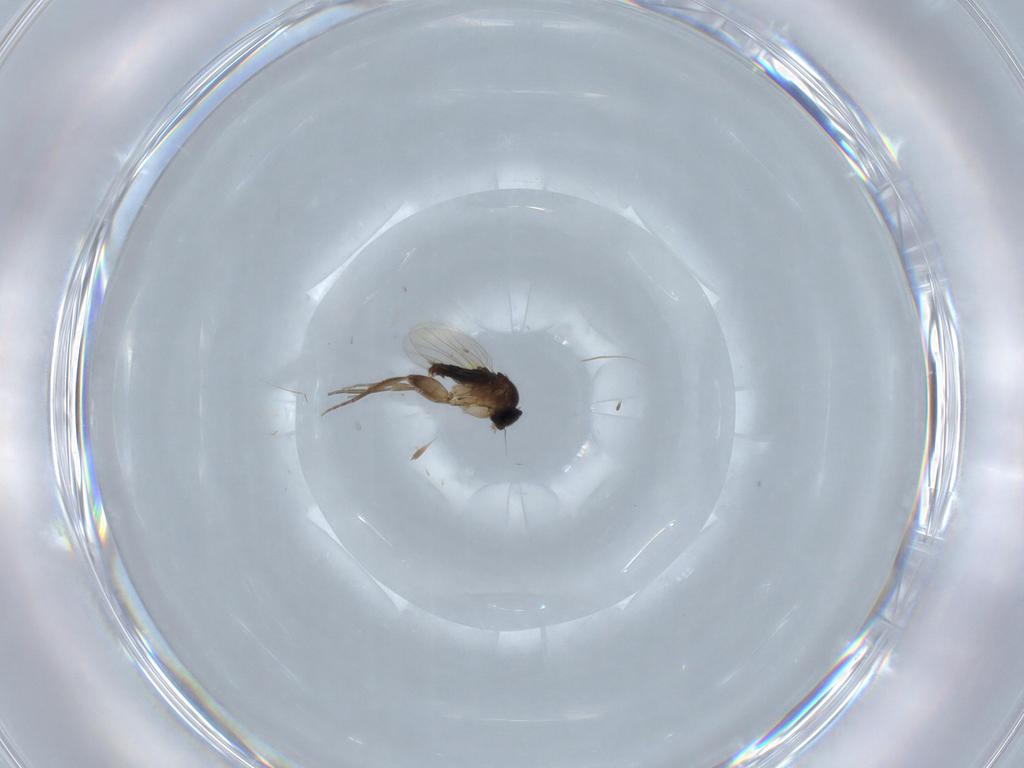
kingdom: Animalia
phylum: Arthropoda
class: Insecta
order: Diptera
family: Phoridae
